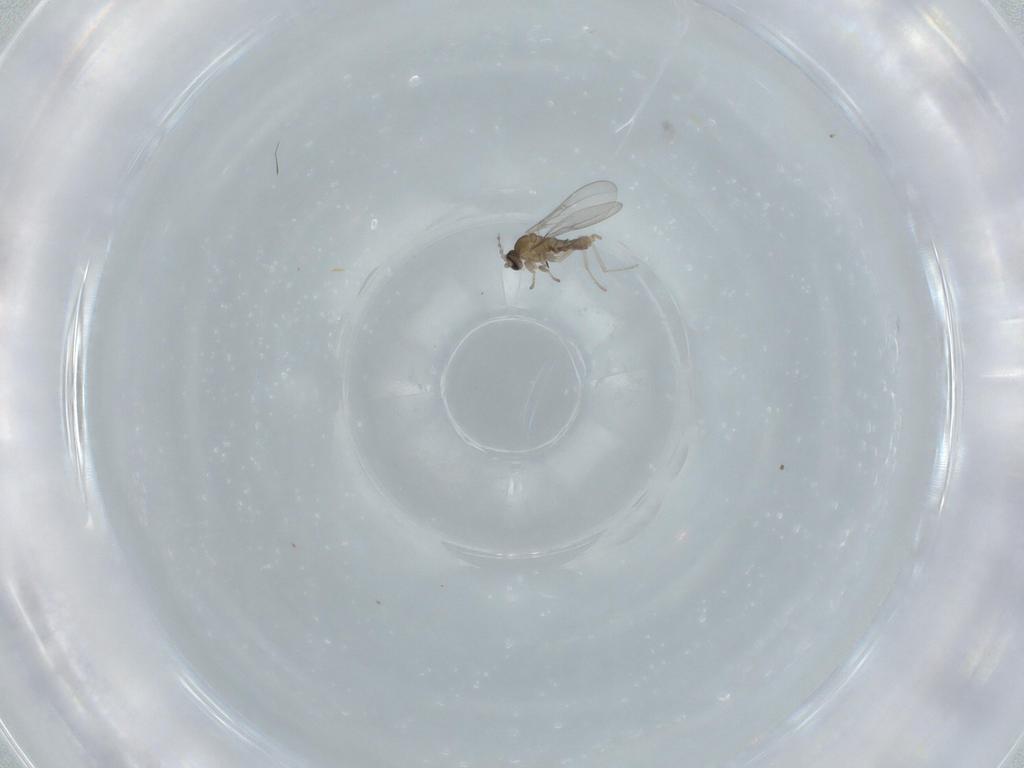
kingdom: Animalia
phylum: Arthropoda
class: Insecta
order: Diptera
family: Cecidomyiidae
